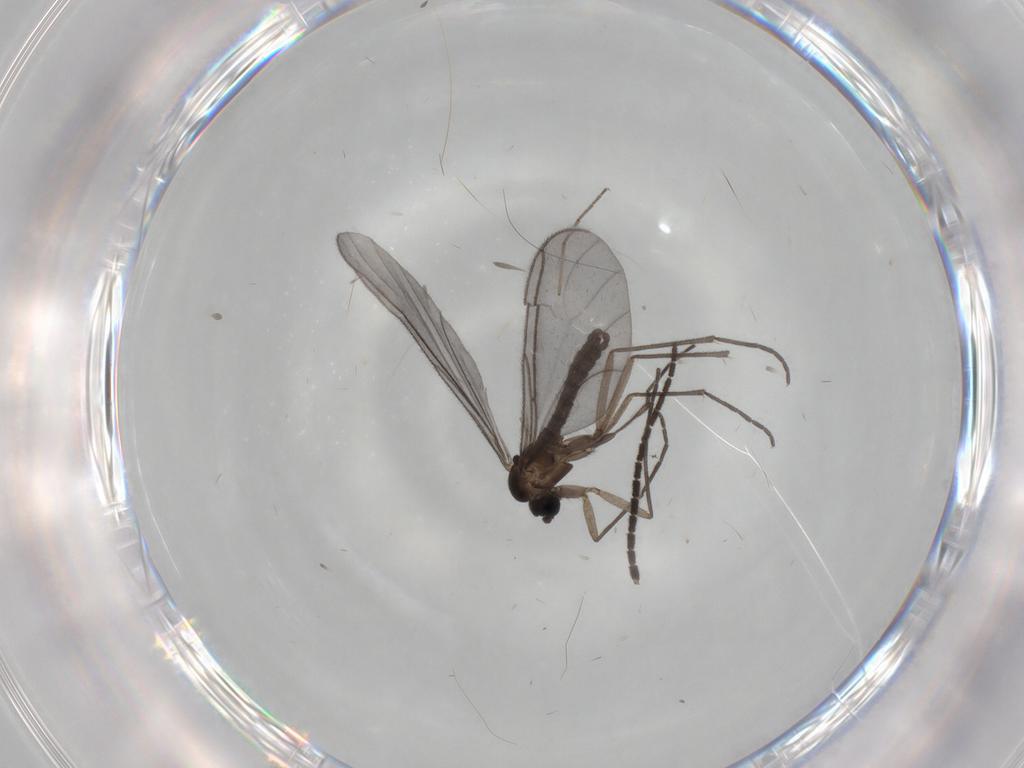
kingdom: Animalia
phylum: Arthropoda
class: Insecta
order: Diptera
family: Sciaridae
